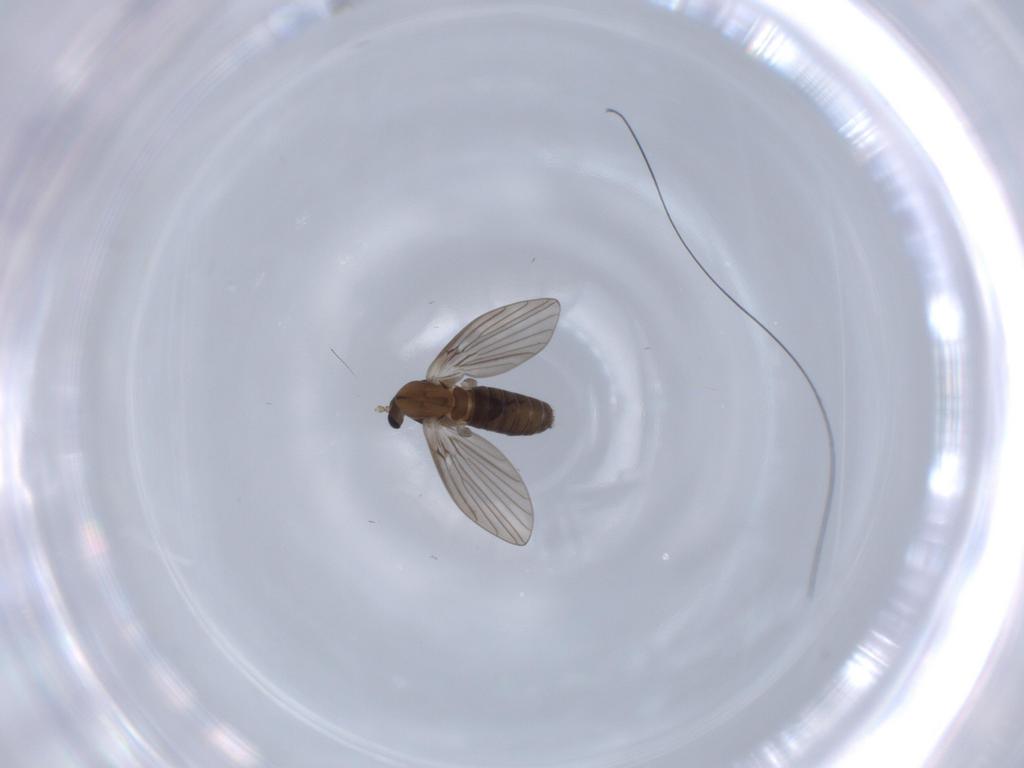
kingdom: Animalia
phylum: Arthropoda
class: Insecta
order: Diptera
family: Psychodidae
